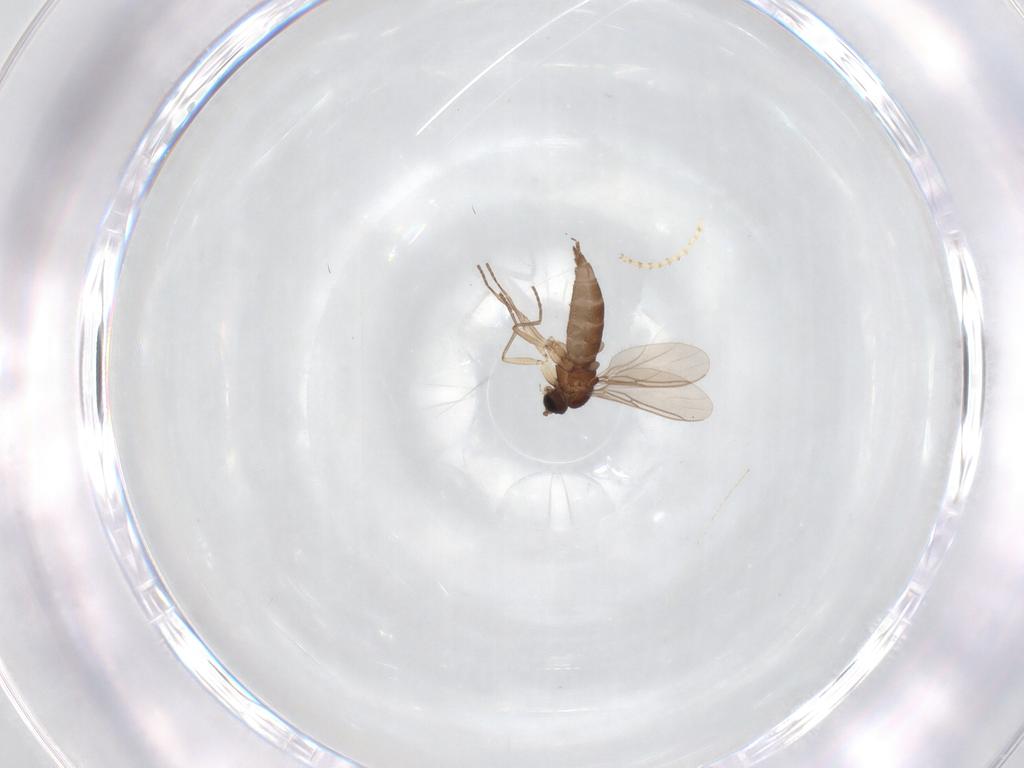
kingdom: Animalia
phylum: Arthropoda
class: Insecta
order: Diptera
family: Sciaridae
